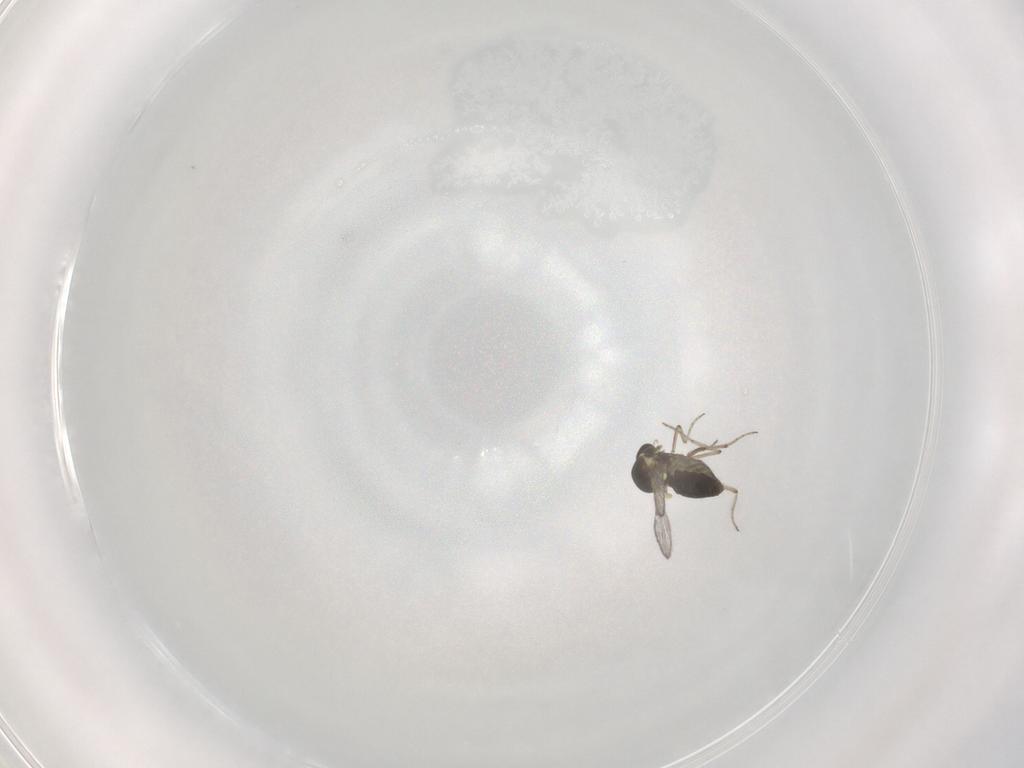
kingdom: Animalia
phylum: Arthropoda
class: Insecta
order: Diptera
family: Ceratopogonidae
